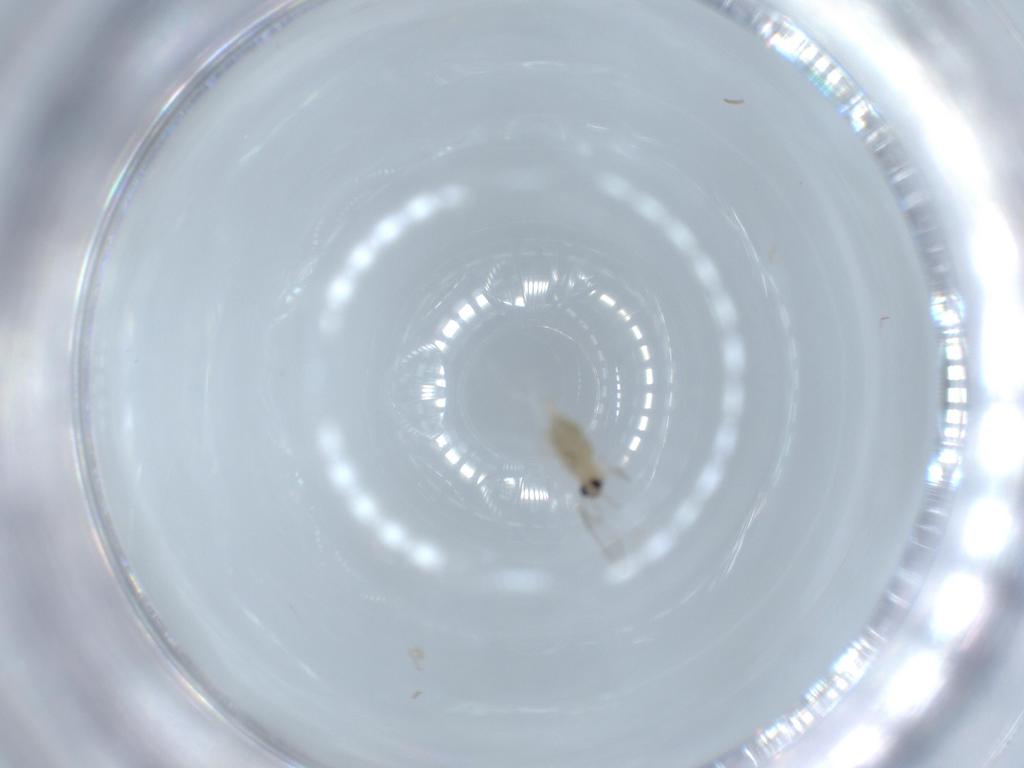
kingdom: Animalia
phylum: Arthropoda
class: Insecta
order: Diptera
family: Cecidomyiidae
